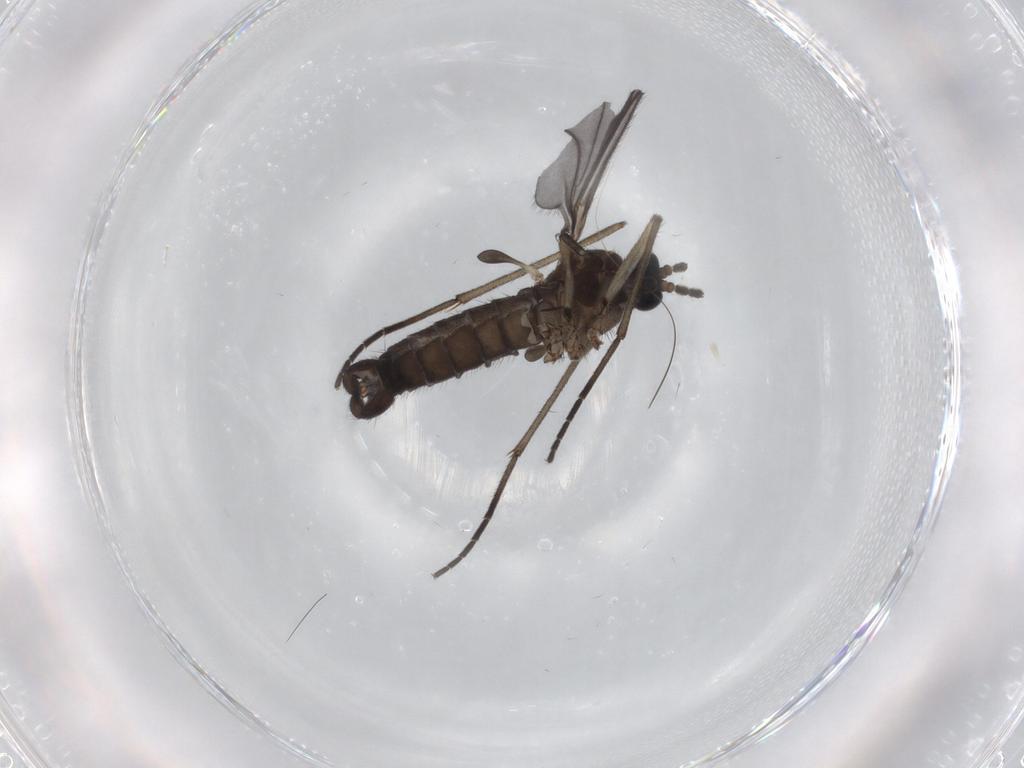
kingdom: Animalia
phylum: Arthropoda
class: Insecta
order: Diptera
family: Sciaridae
